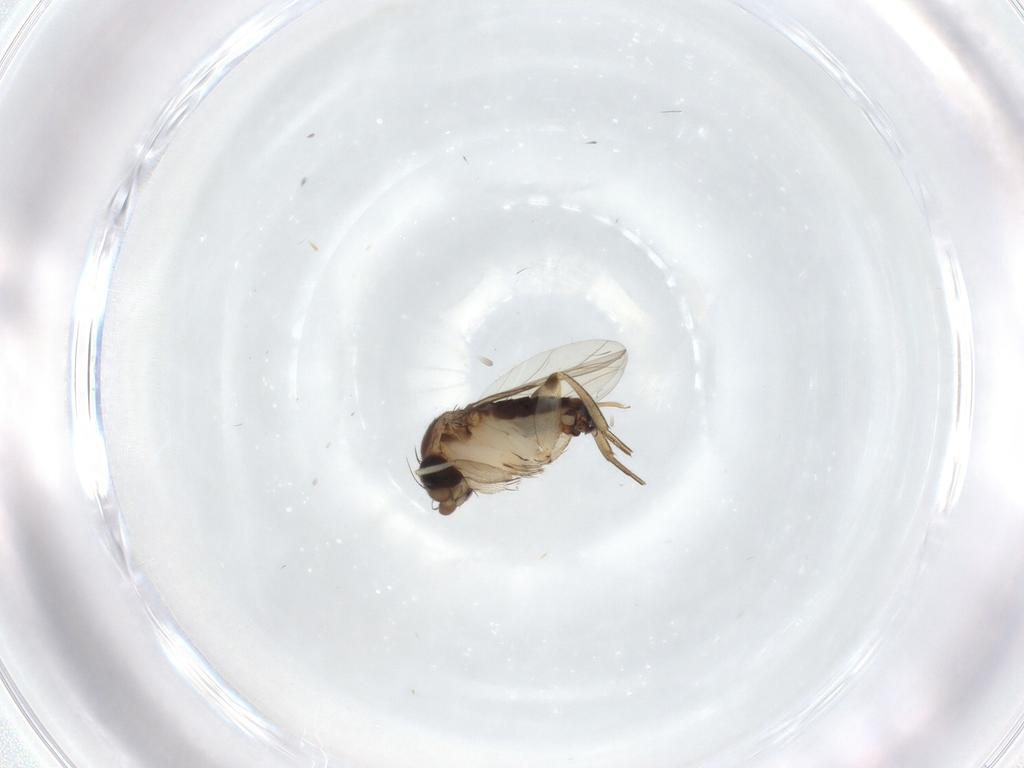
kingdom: Animalia
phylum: Arthropoda
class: Insecta
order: Diptera
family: Phoridae
